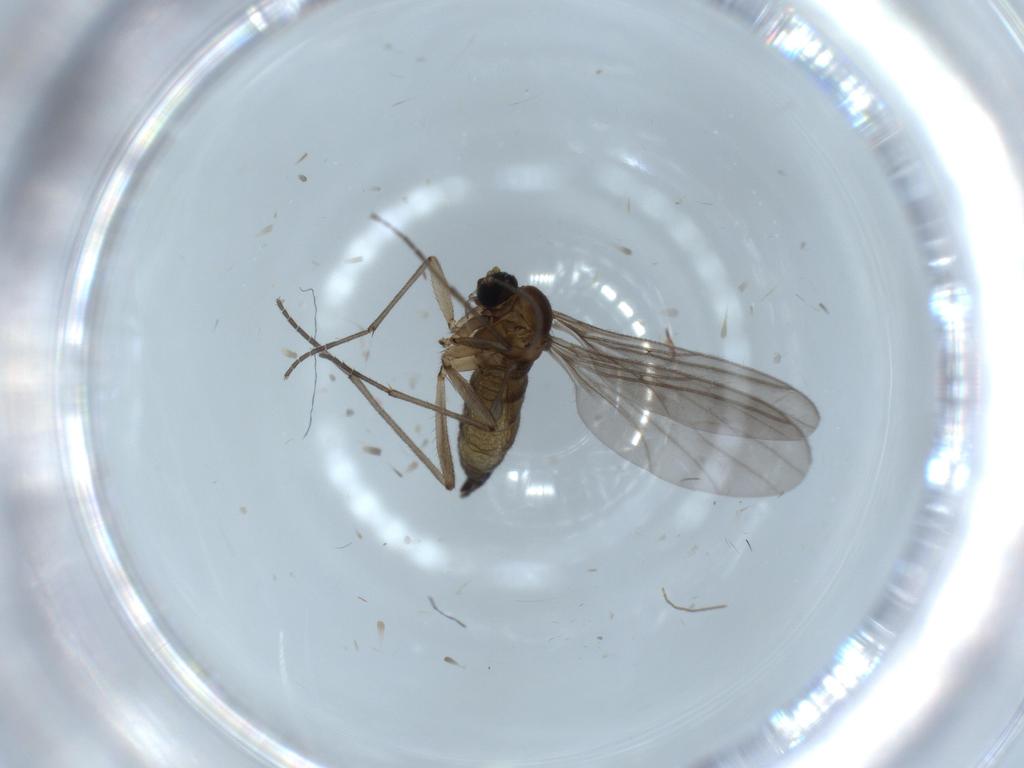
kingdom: Animalia
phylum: Arthropoda
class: Insecta
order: Diptera
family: Sciaridae
